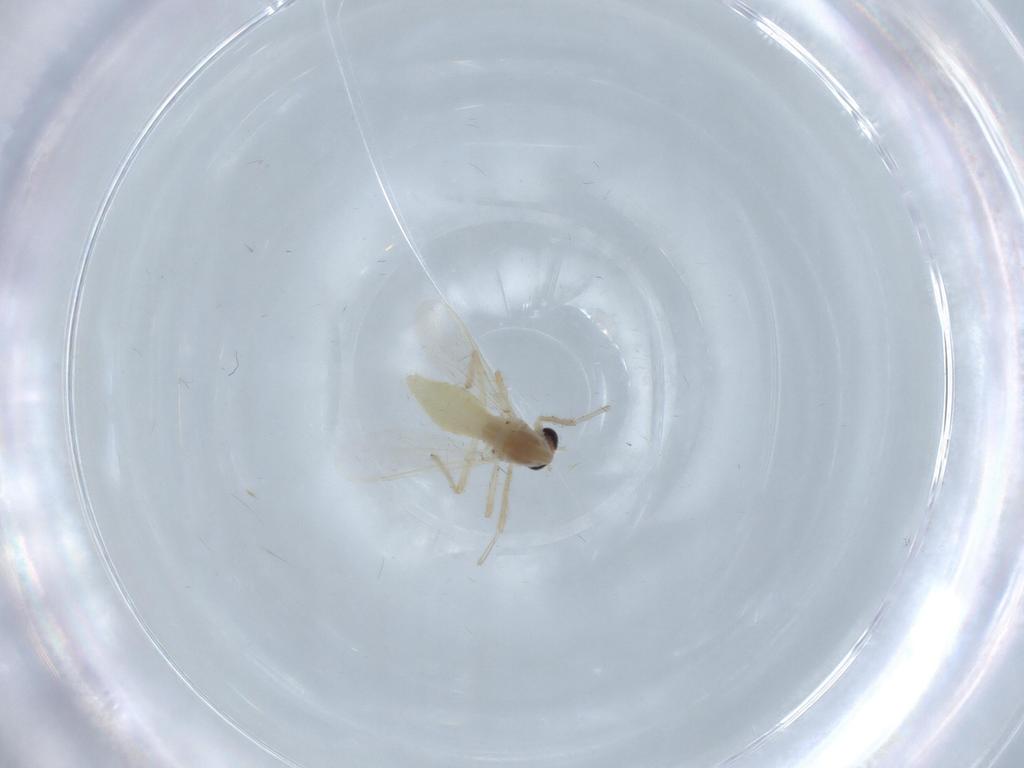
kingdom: Animalia
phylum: Arthropoda
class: Insecta
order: Diptera
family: Chironomidae
